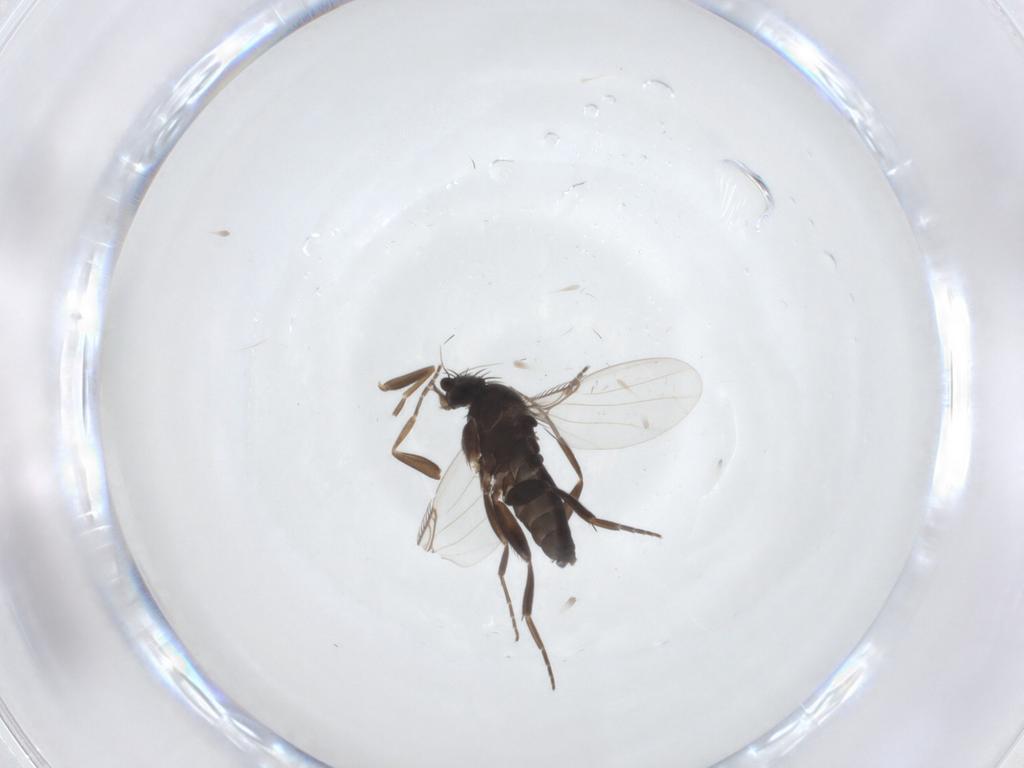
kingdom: Animalia
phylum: Arthropoda
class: Insecta
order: Diptera
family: Phoridae
